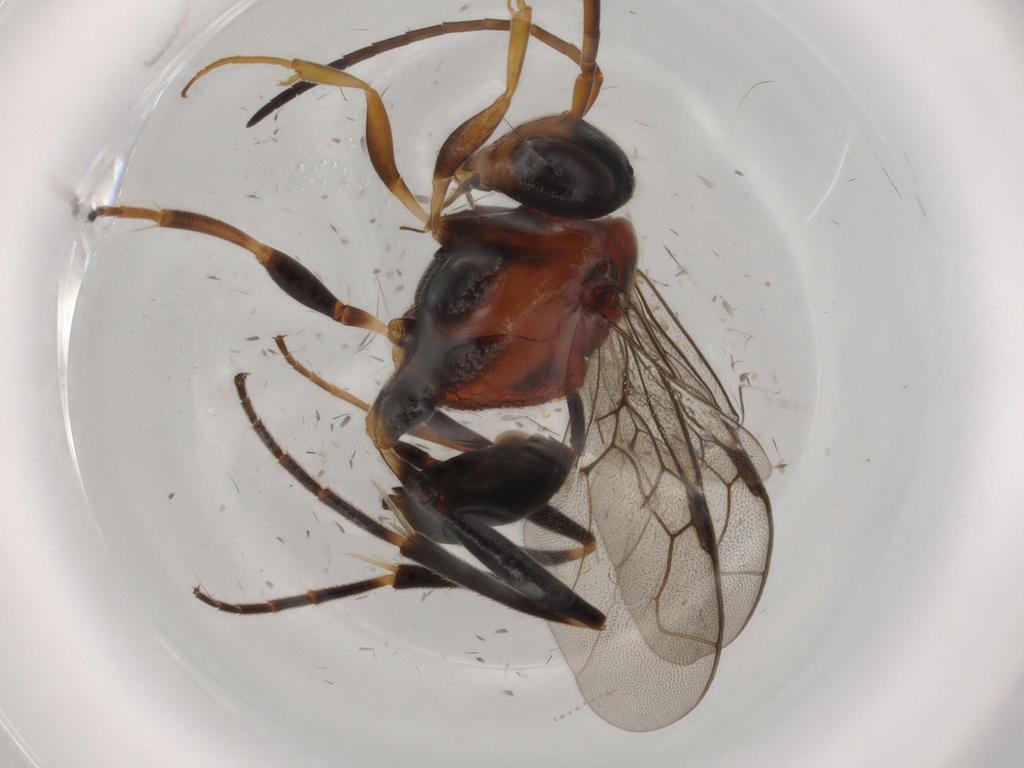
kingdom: Animalia
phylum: Arthropoda
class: Insecta
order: Hymenoptera
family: Evaniidae
